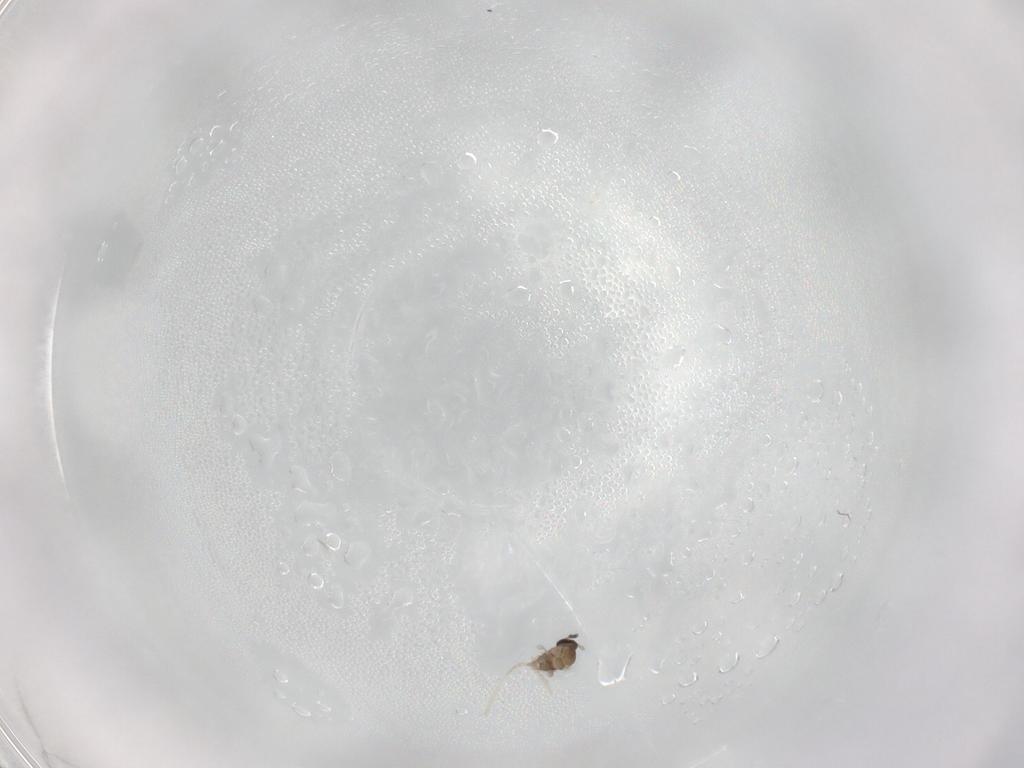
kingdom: Animalia
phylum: Arthropoda
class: Insecta
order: Diptera
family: Cecidomyiidae
